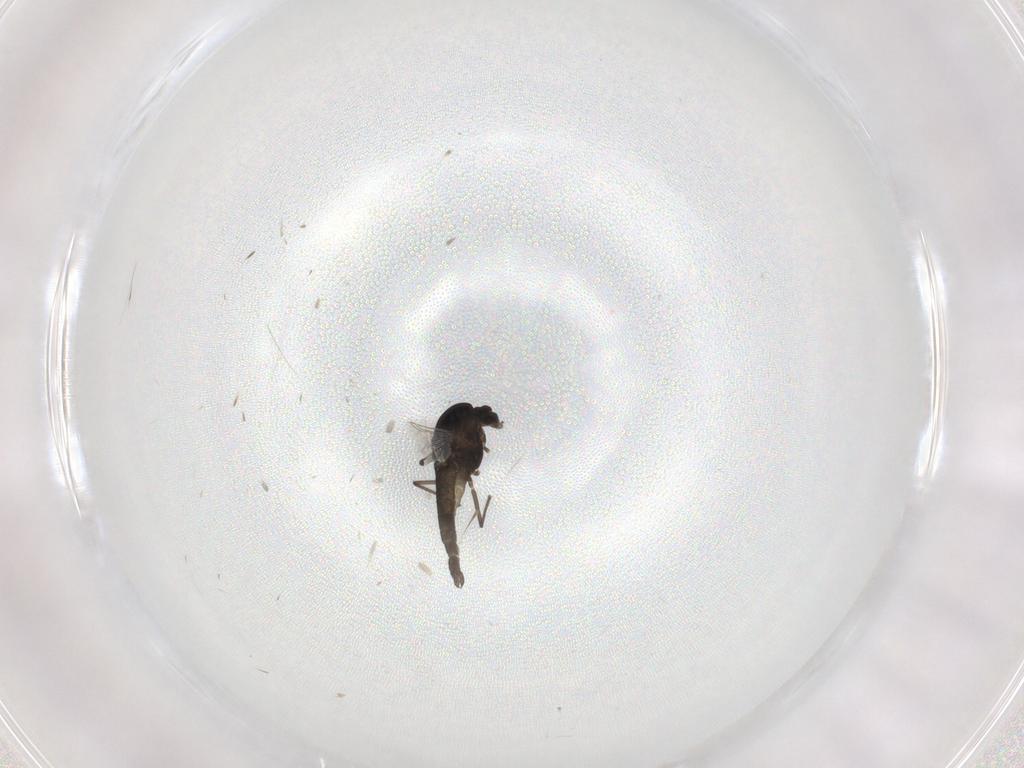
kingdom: Animalia
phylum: Arthropoda
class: Insecta
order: Diptera
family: Chironomidae
